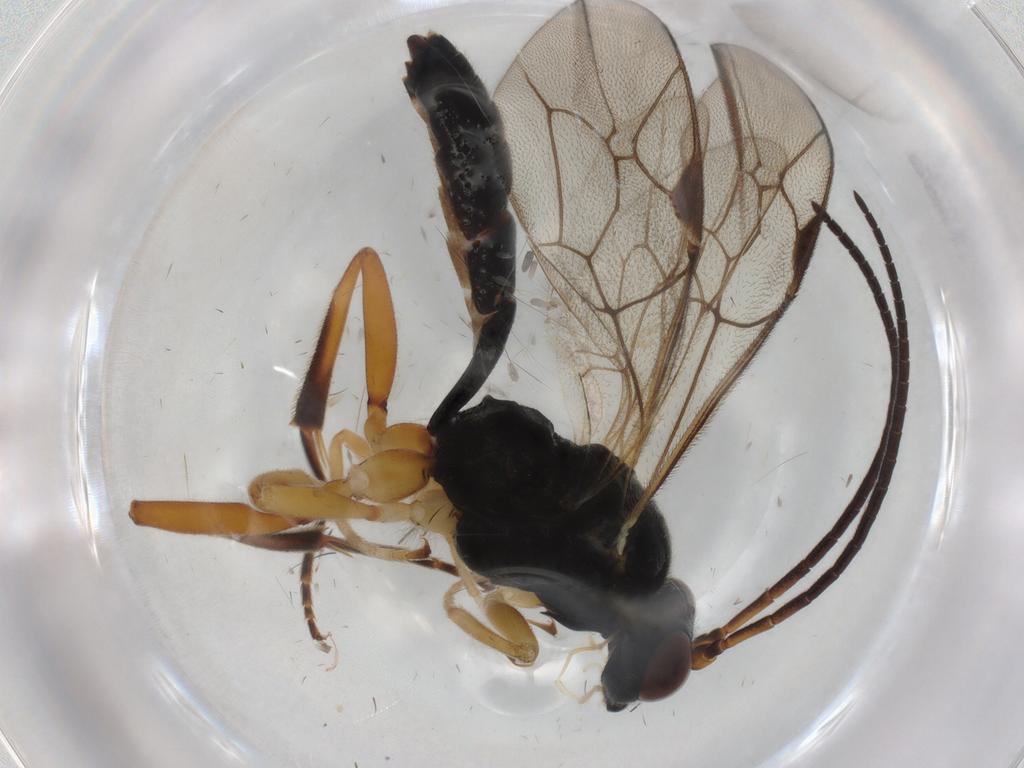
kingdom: Animalia
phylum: Arthropoda
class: Insecta
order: Hymenoptera
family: Ichneumonidae
